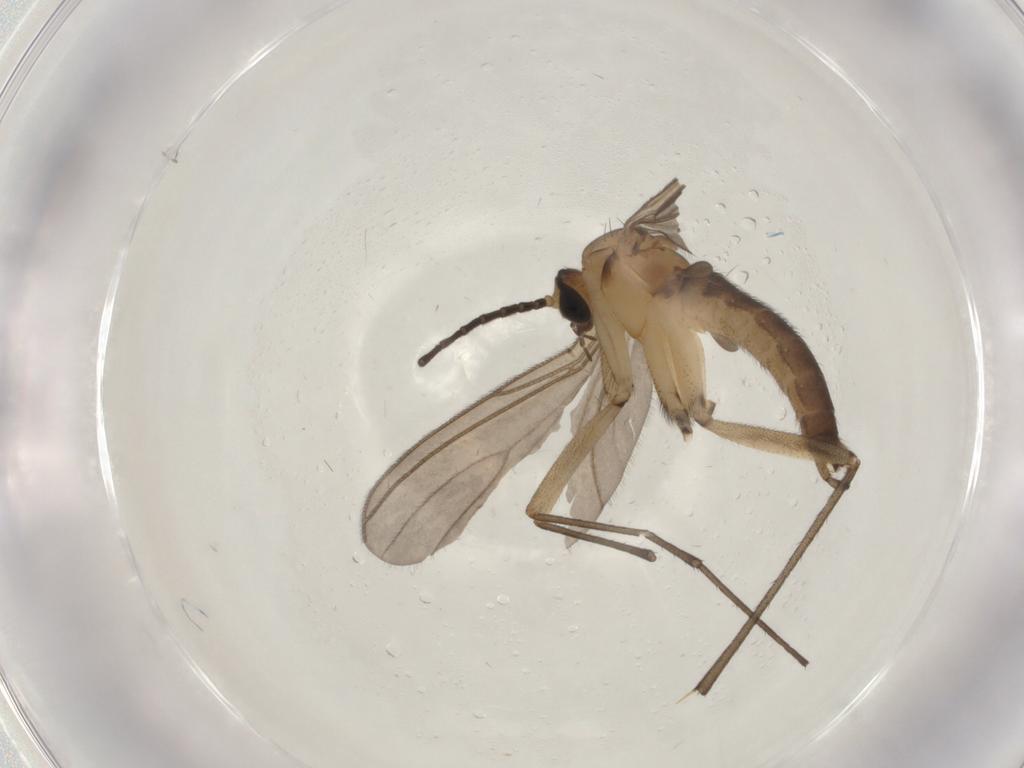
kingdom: Animalia
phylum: Arthropoda
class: Insecta
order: Diptera
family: Sciaridae
